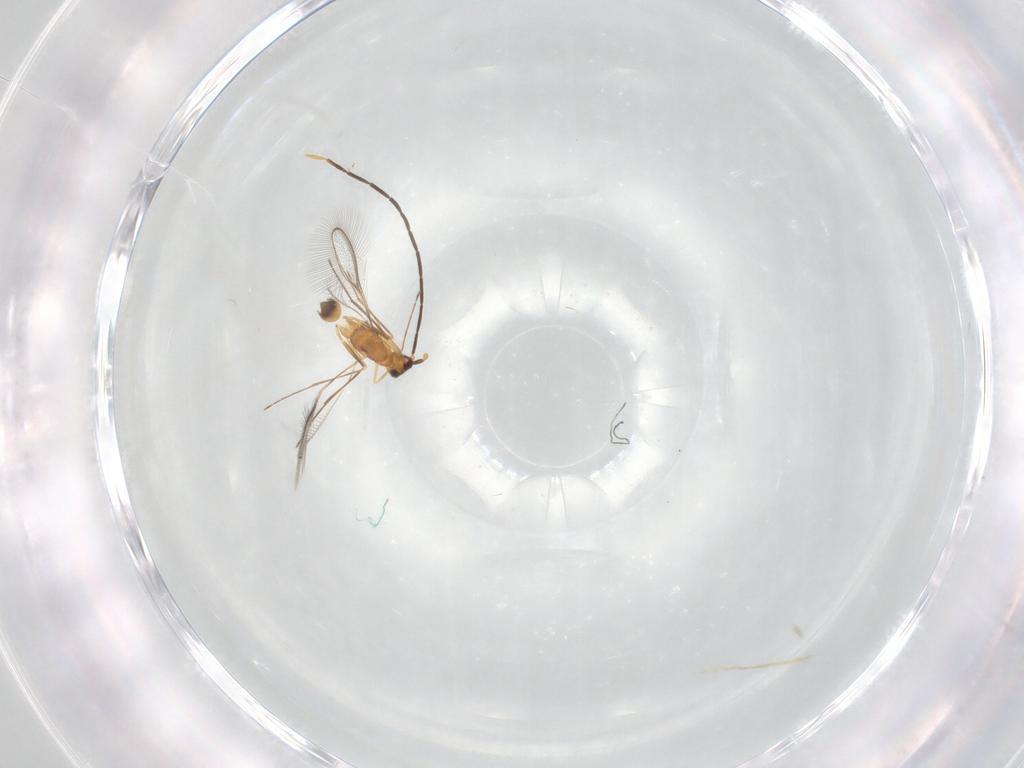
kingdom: Animalia
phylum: Arthropoda
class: Insecta
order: Hymenoptera
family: Mymaridae
